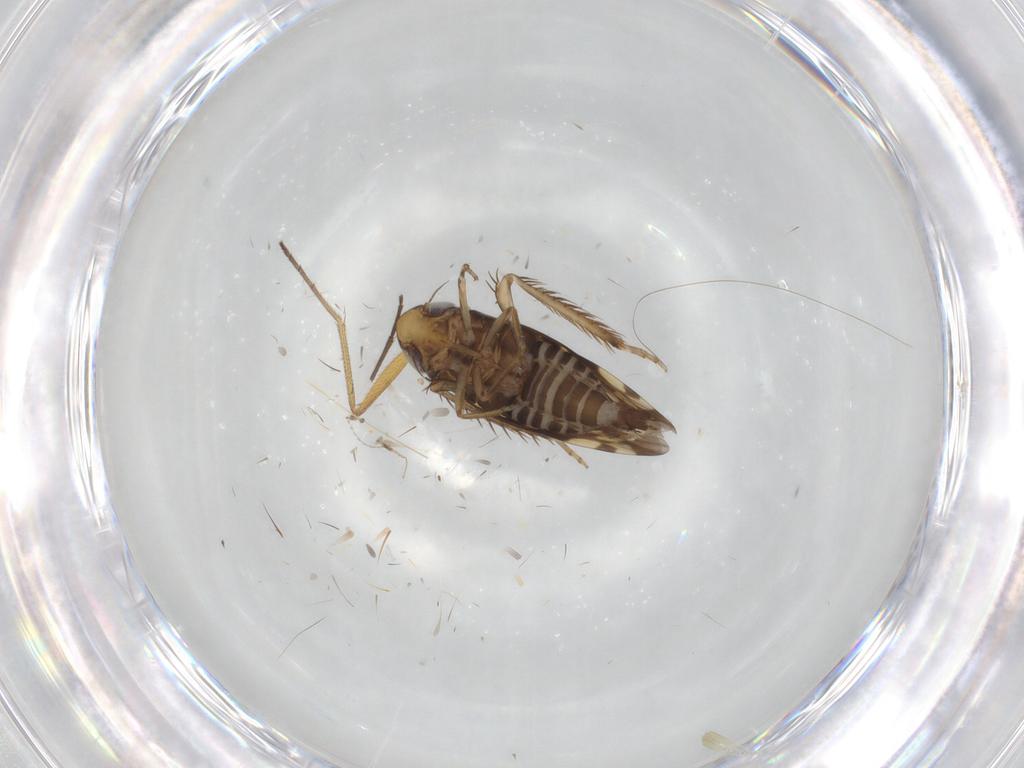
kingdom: Animalia
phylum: Arthropoda
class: Insecta
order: Hemiptera
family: Cicadellidae
